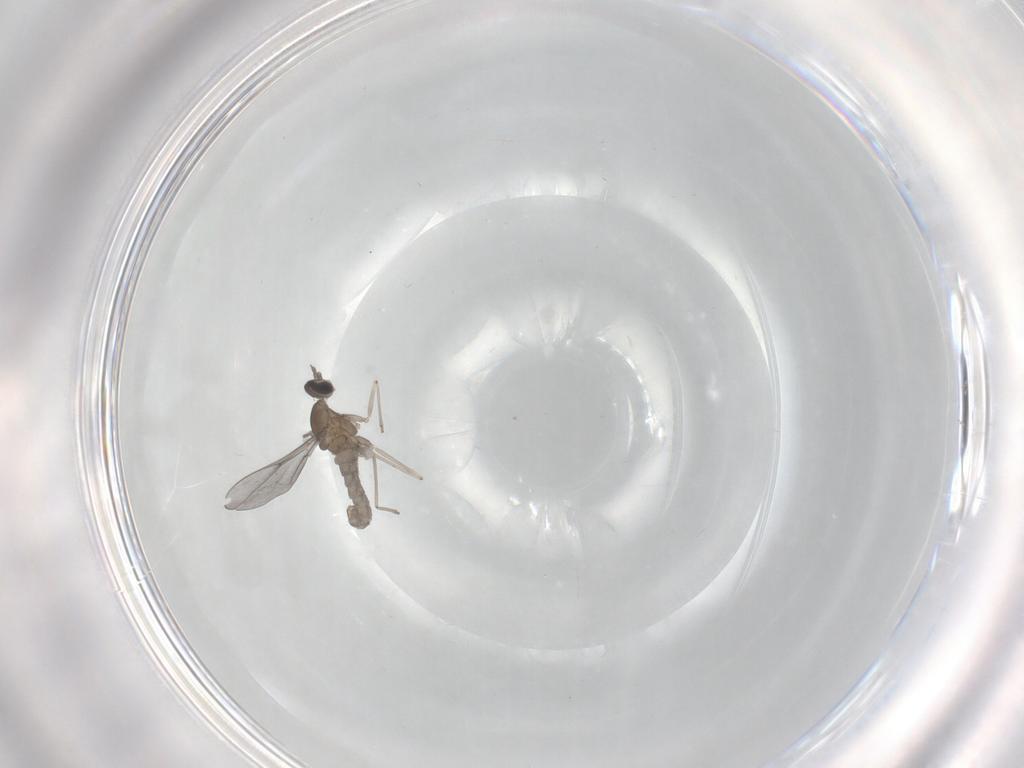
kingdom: Animalia
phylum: Arthropoda
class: Insecta
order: Diptera
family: Cecidomyiidae
